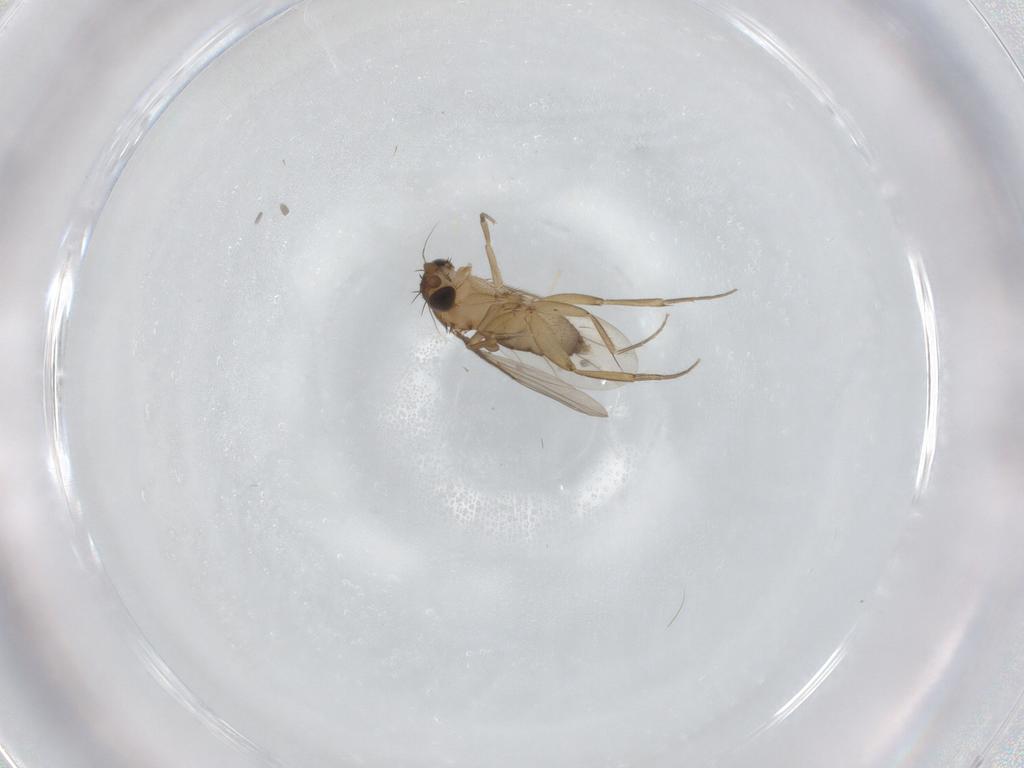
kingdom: Animalia
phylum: Arthropoda
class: Insecta
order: Diptera
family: Phoridae
